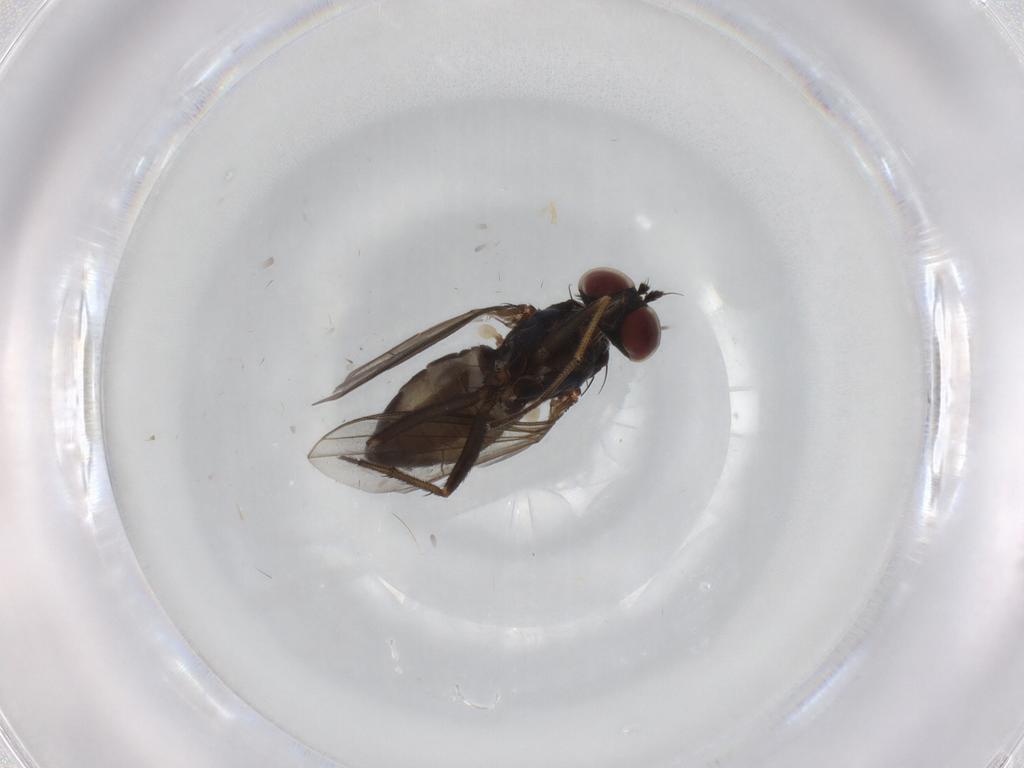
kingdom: Animalia
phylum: Arthropoda
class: Insecta
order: Diptera
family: Dolichopodidae
